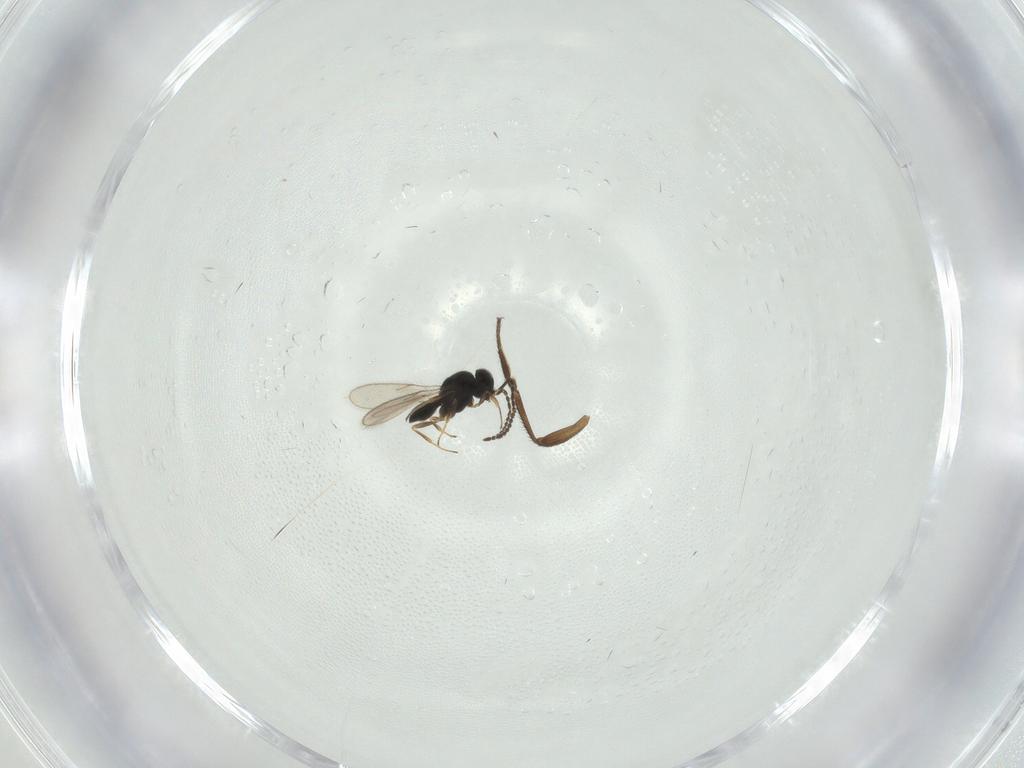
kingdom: Animalia
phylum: Arthropoda
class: Insecta
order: Hymenoptera
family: Scelionidae
